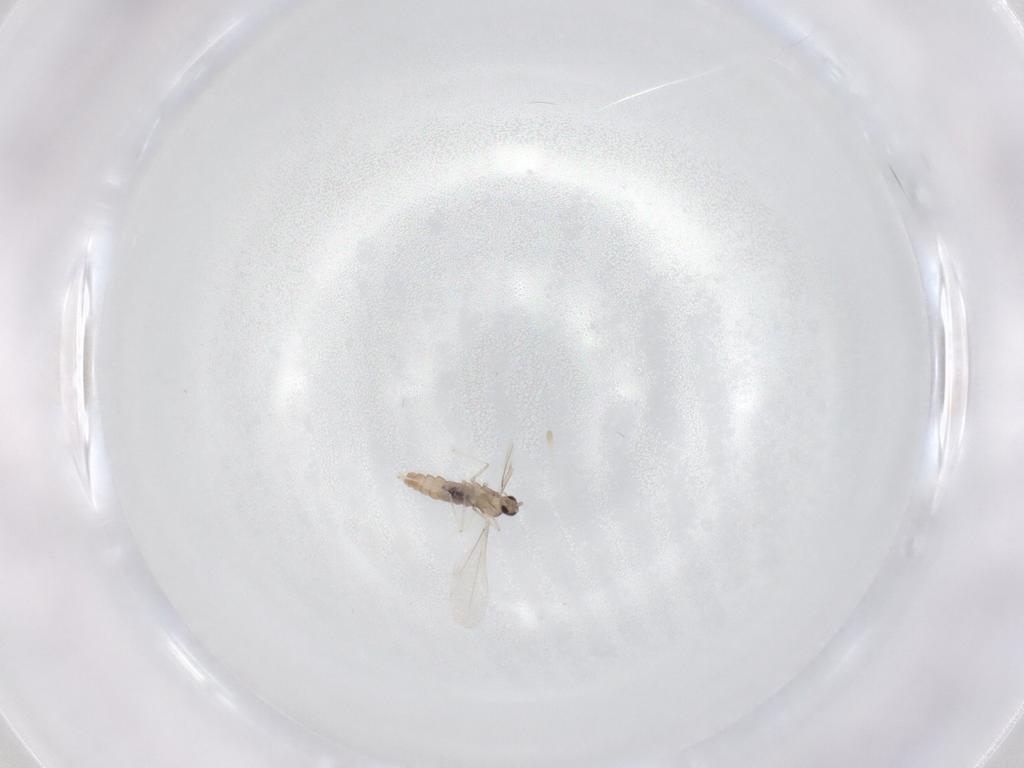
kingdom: Animalia
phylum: Arthropoda
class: Insecta
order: Diptera
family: Cecidomyiidae
